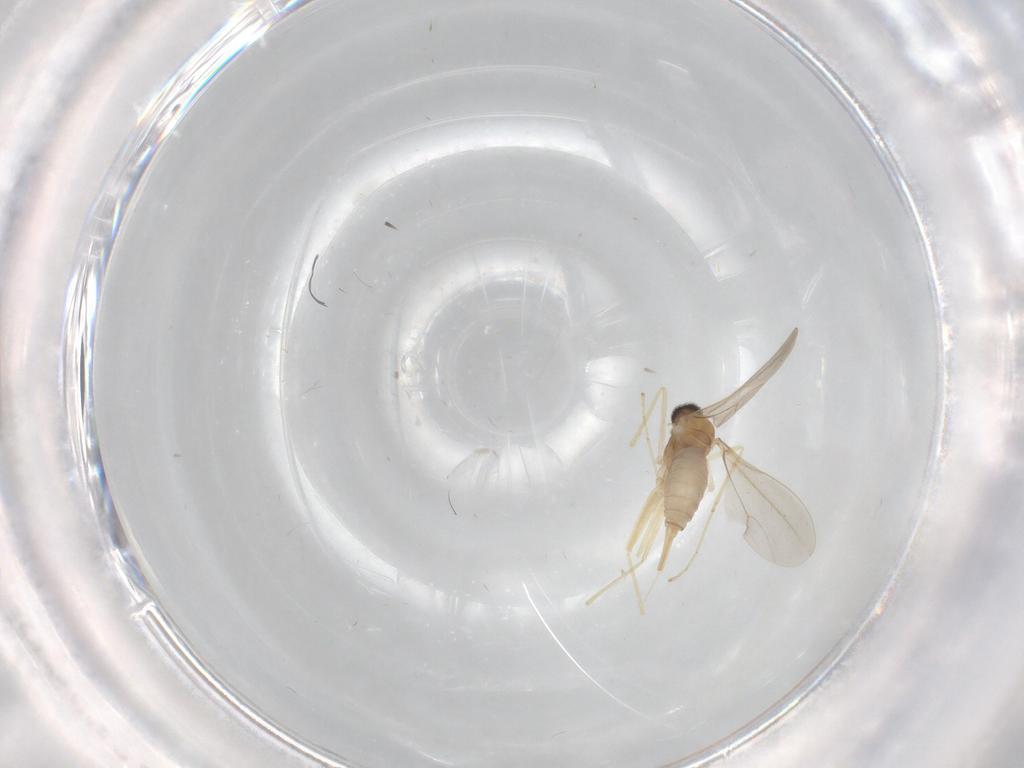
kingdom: Animalia
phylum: Arthropoda
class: Insecta
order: Diptera
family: Cecidomyiidae
